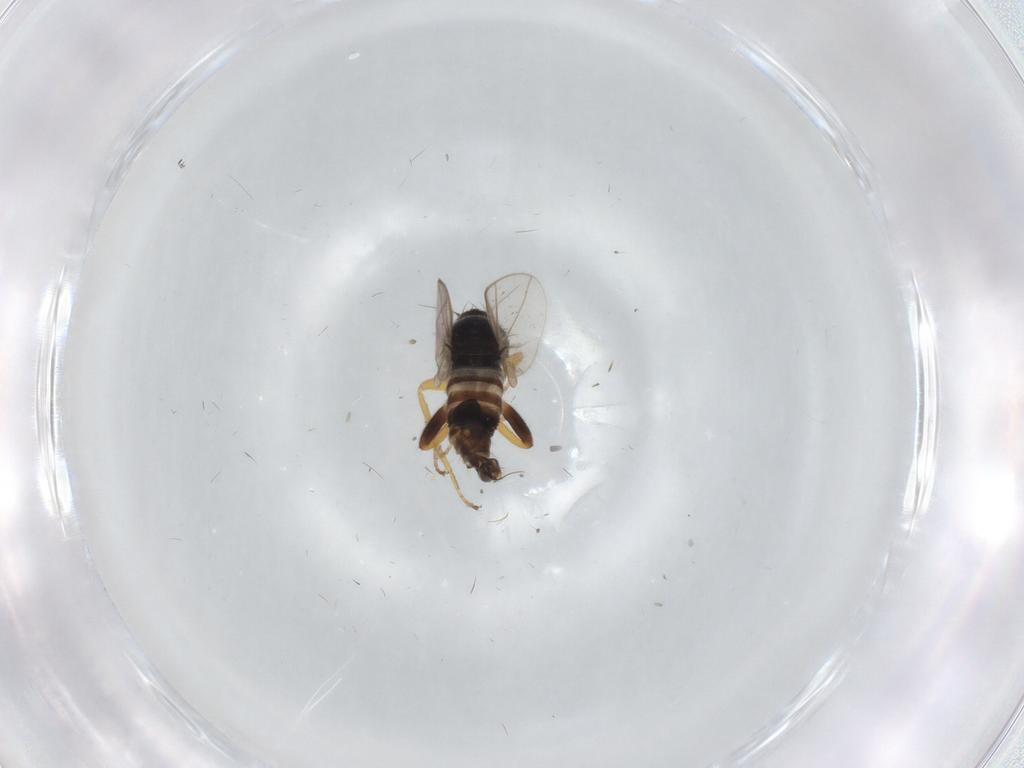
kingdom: Animalia
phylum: Arthropoda
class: Insecta
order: Diptera
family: Hybotidae
